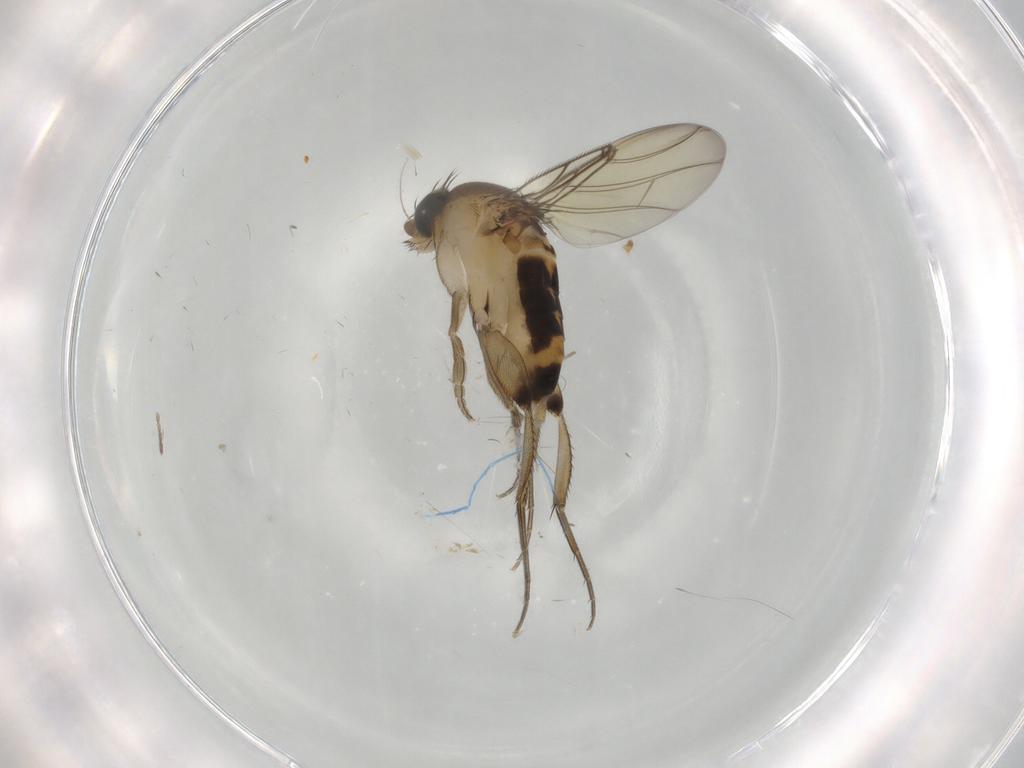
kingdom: Animalia
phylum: Arthropoda
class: Insecta
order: Diptera
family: Phoridae
